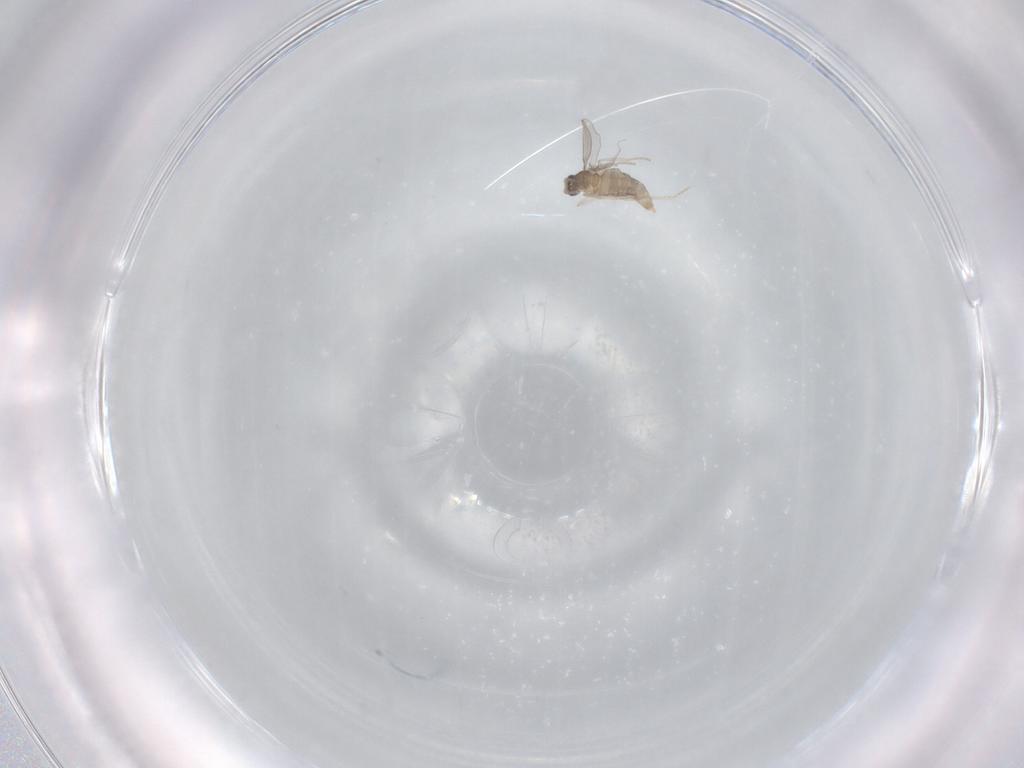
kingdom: Animalia
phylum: Arthropoda
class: Insecta
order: Diptera
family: Cecidomyiidae
